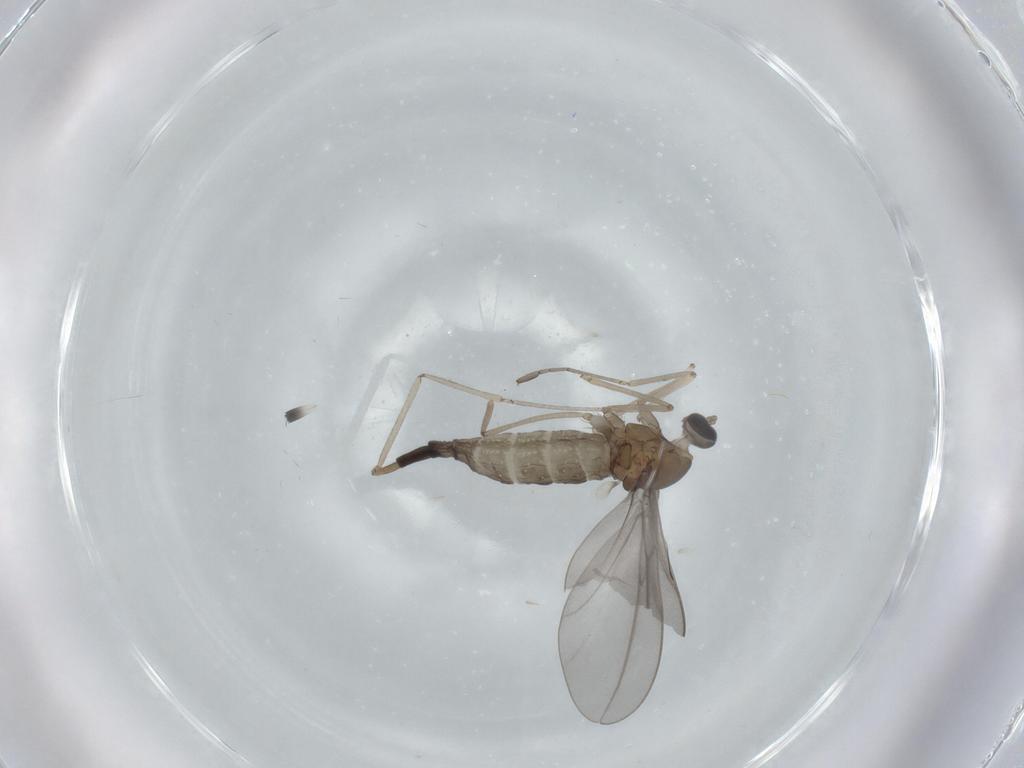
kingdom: Animalia
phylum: Arthropoda
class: Insecta
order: Diptera
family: Cecidomyiidae
